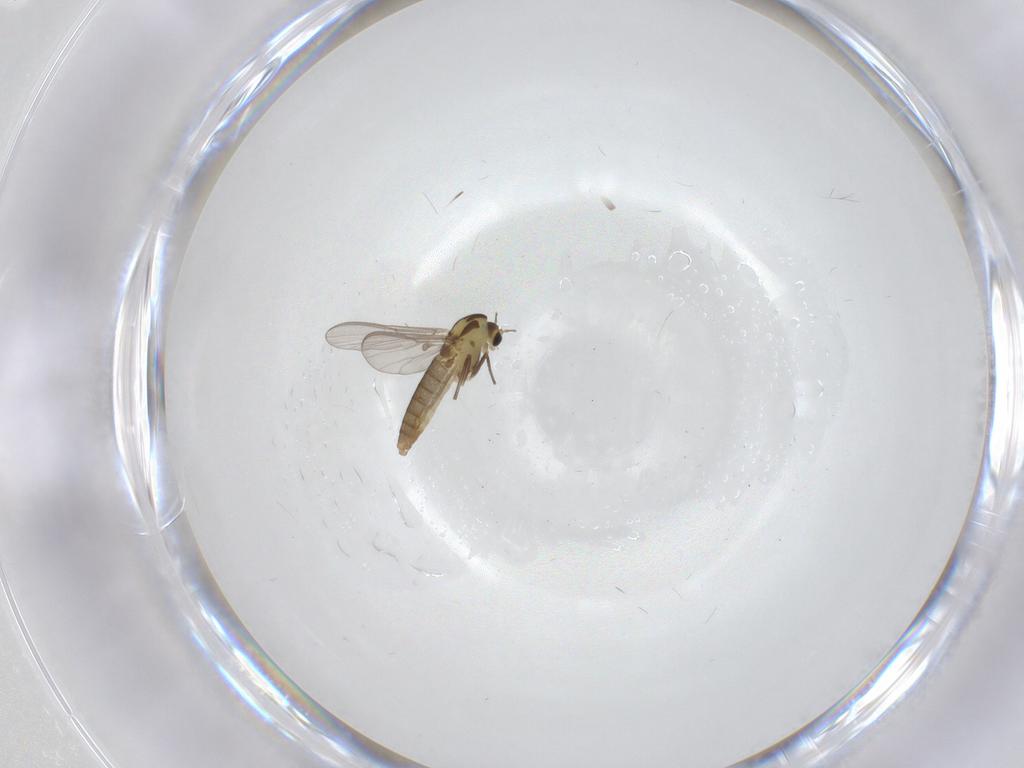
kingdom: Animalia
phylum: Arthropoda
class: Insecta
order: Diptera
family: Chironomidae
